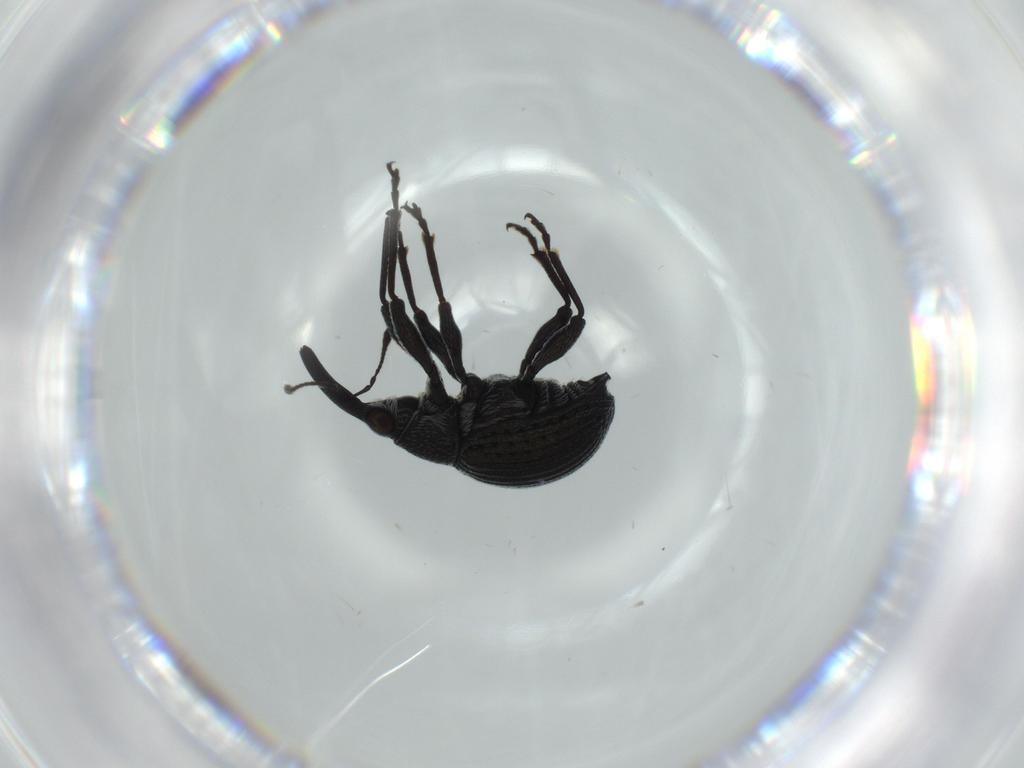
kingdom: Animalia
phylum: Arthropoda
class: Insecta
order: Coleoptera
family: Brentidae
